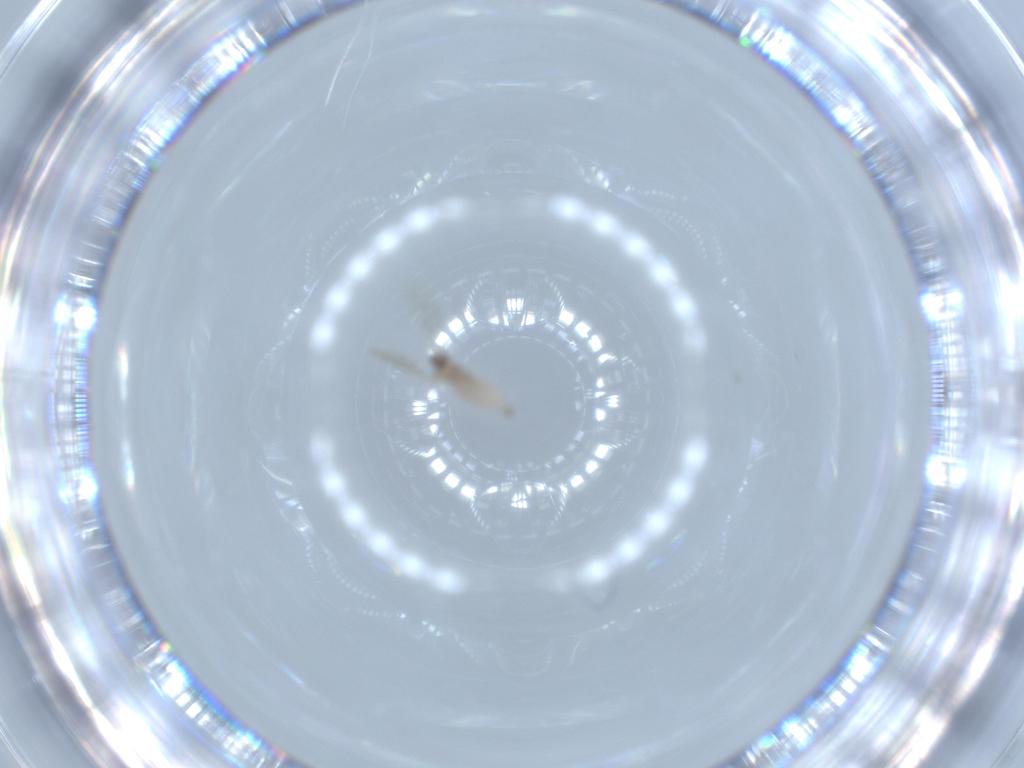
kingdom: Animalia
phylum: Arthropoda
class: Insecta
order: Diptera
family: Cecidomyiidae
